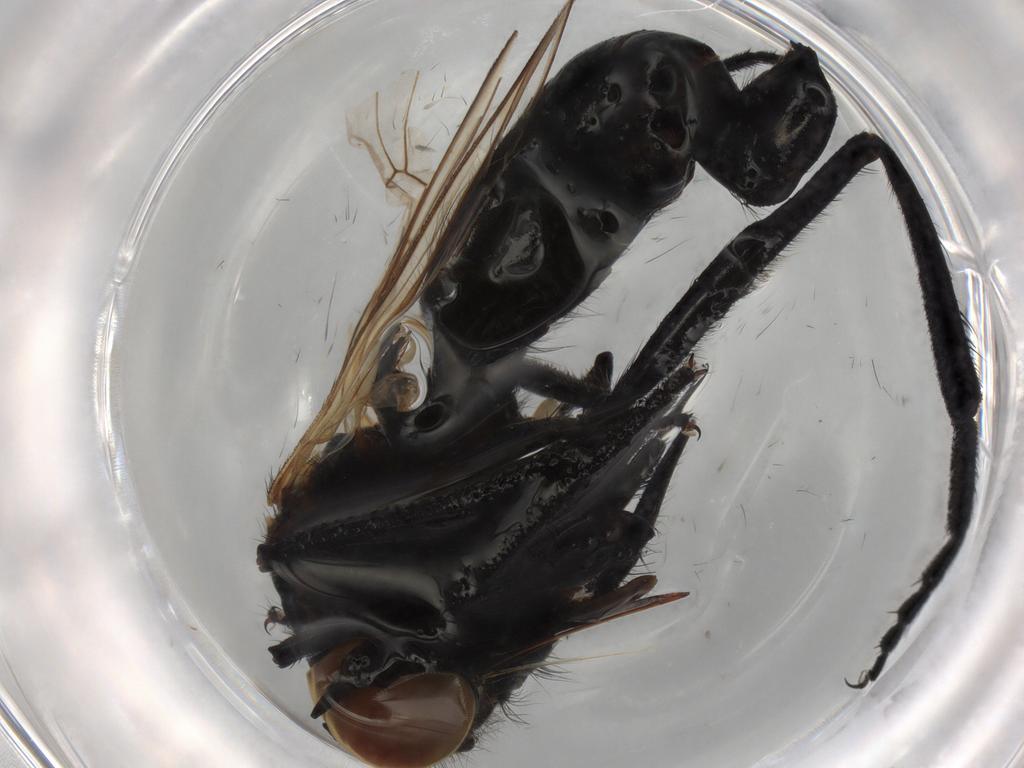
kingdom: Animalia
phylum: Arthropoda
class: Insecta
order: Diptera
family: Empididae
